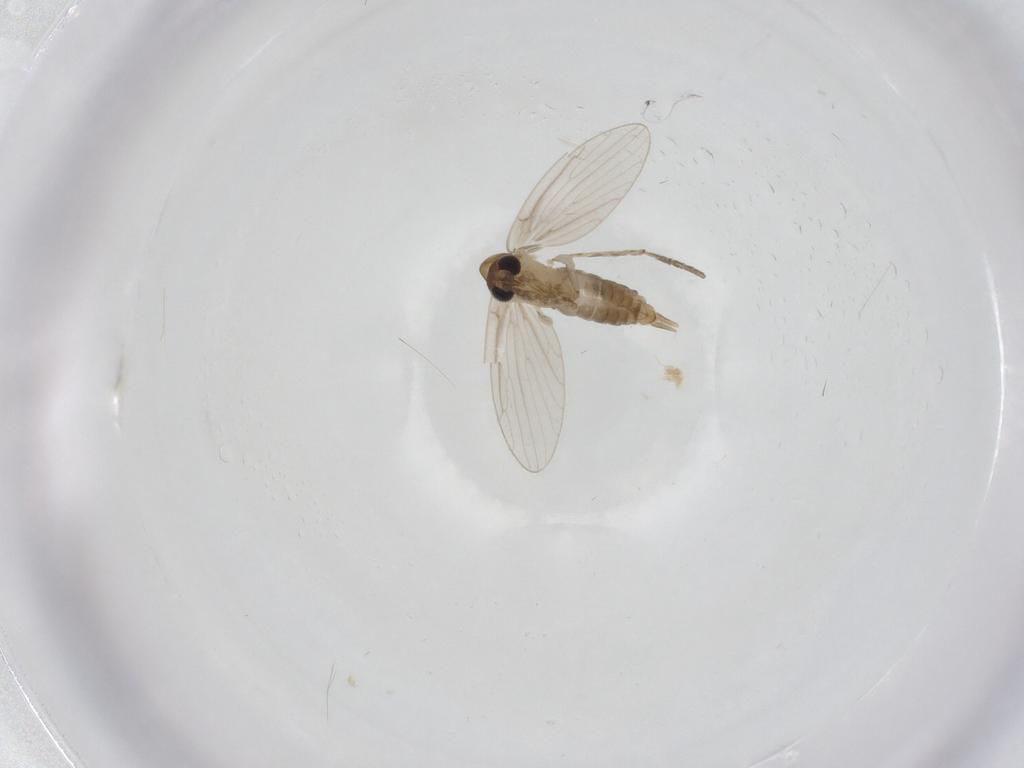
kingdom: Animalia
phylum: Arthropoda
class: Insecta
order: Diptera
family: Psychodidae
